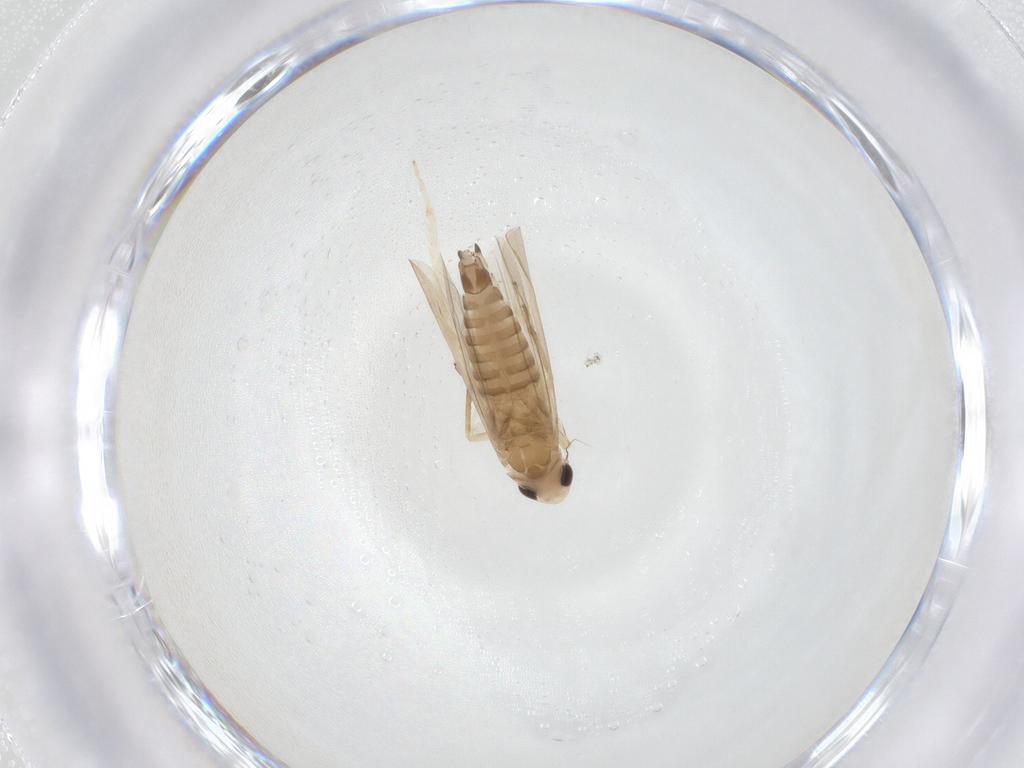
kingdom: Animalia
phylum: Arthropoda
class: Insecta
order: Hemiptera
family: Cicadellidae
